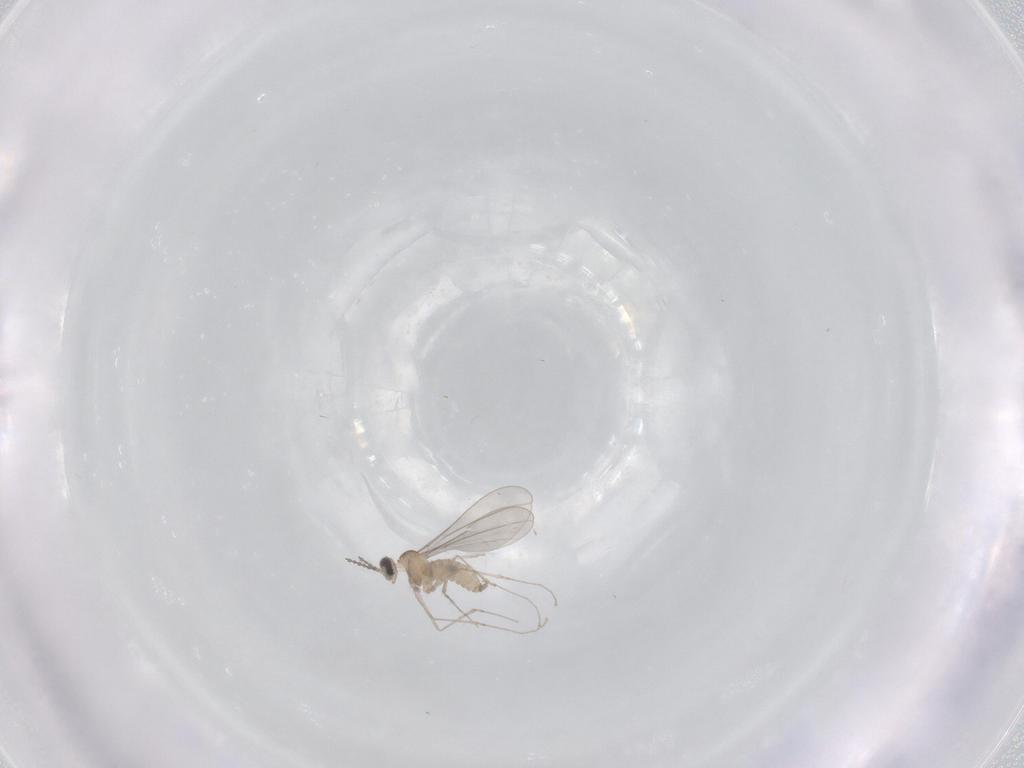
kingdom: Animalia
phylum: Arthropoda
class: Insecta
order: Diptera
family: Cecidomyiidae
